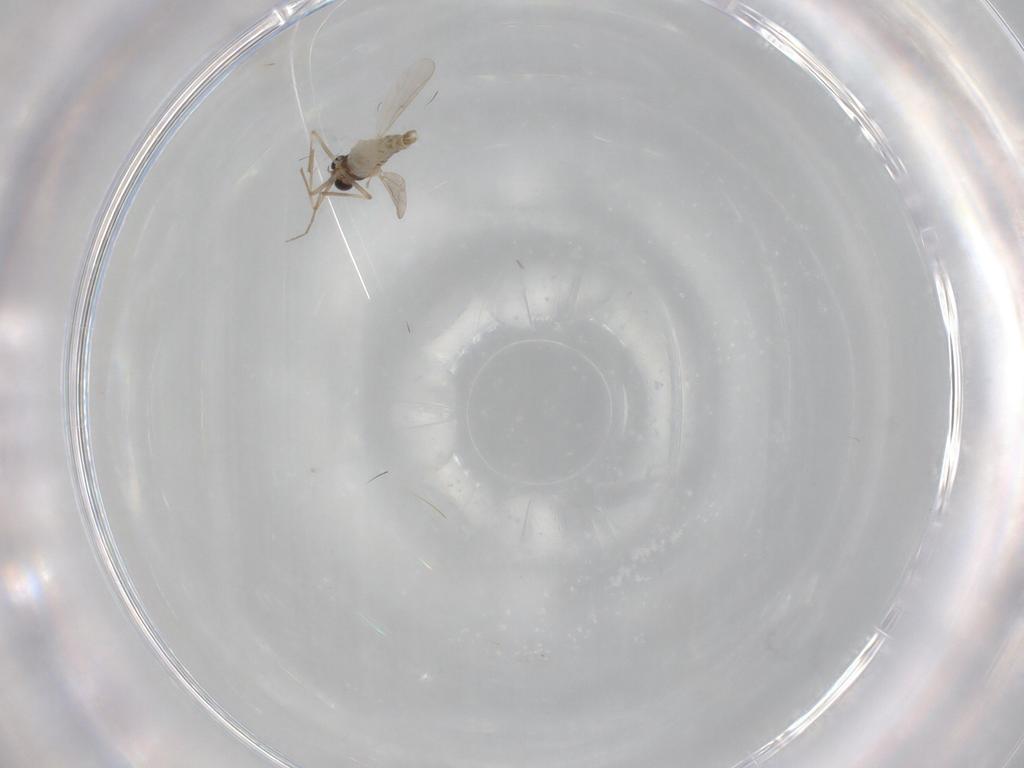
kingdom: Animalia
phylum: Arthropoda
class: Insecta
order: Diptera
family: Chironomidae
